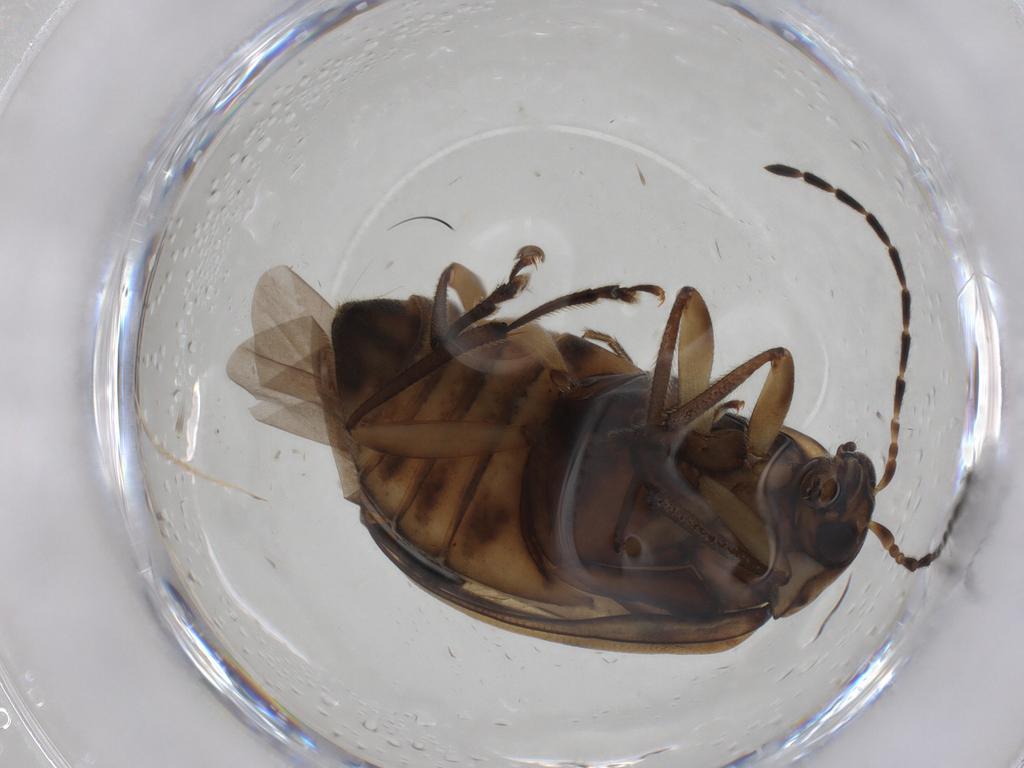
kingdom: Animalia
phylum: Arthropoda
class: Insecta
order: Coleoptera
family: Chrysomelidae
